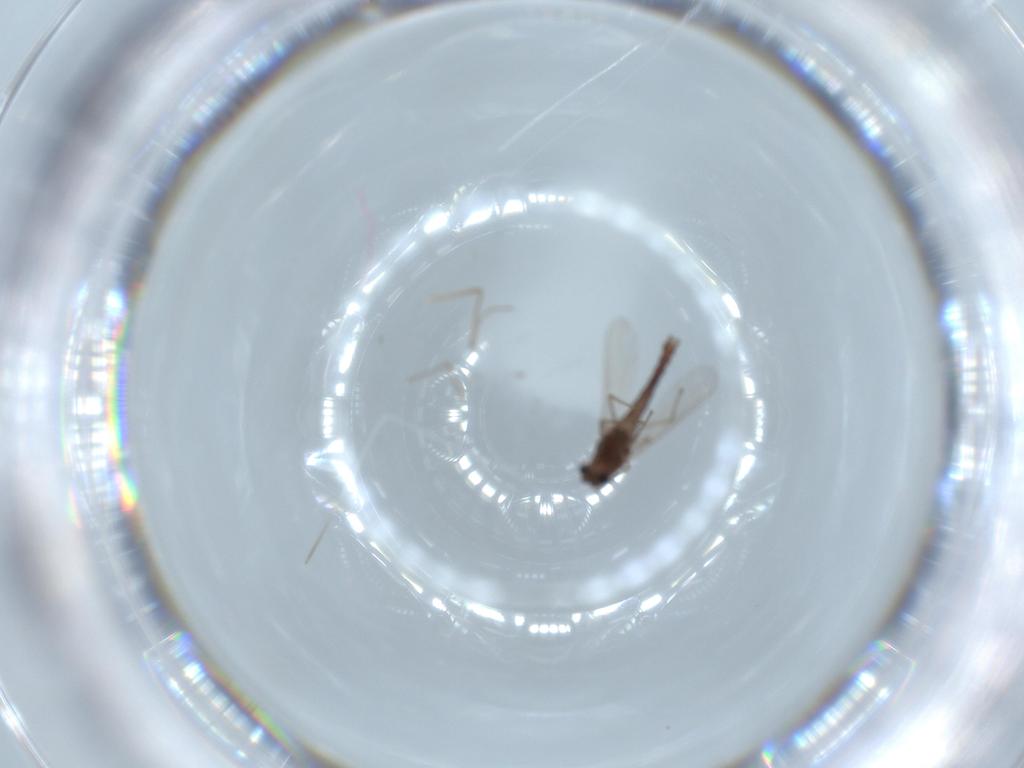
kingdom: Animalia
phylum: Arthropoda
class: Insecta
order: Diptera
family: Chironomidae
